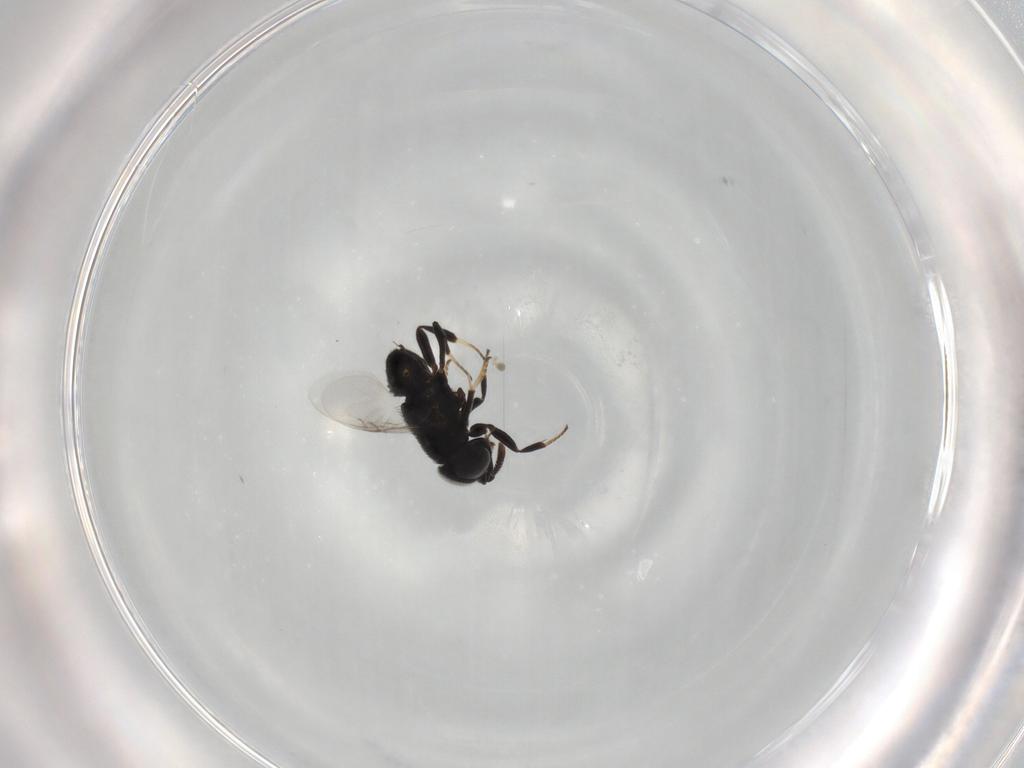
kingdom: Animalia
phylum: Arthropoda
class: Insecta
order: Hymenoptera
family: Encyrtidae
